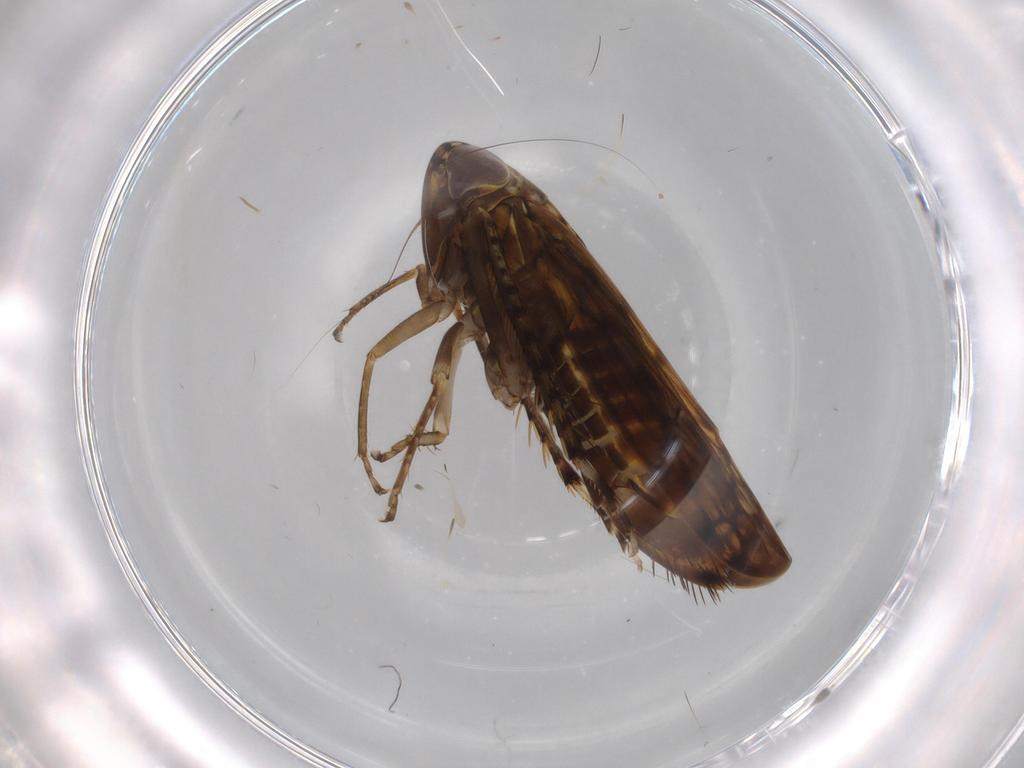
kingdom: Animalia
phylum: Arthropoda
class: Insecta
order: Hemiptera
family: Cicadellidae
